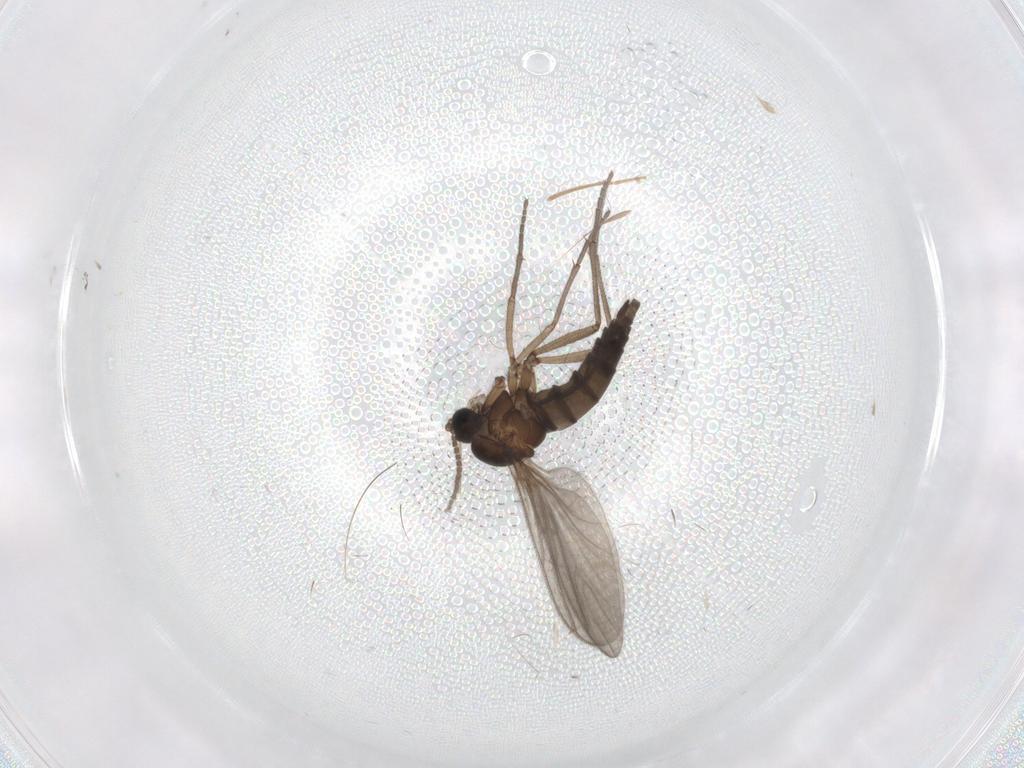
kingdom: Animalia
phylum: Arthropoda
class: Insecta
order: Diptera
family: Sciaridae
